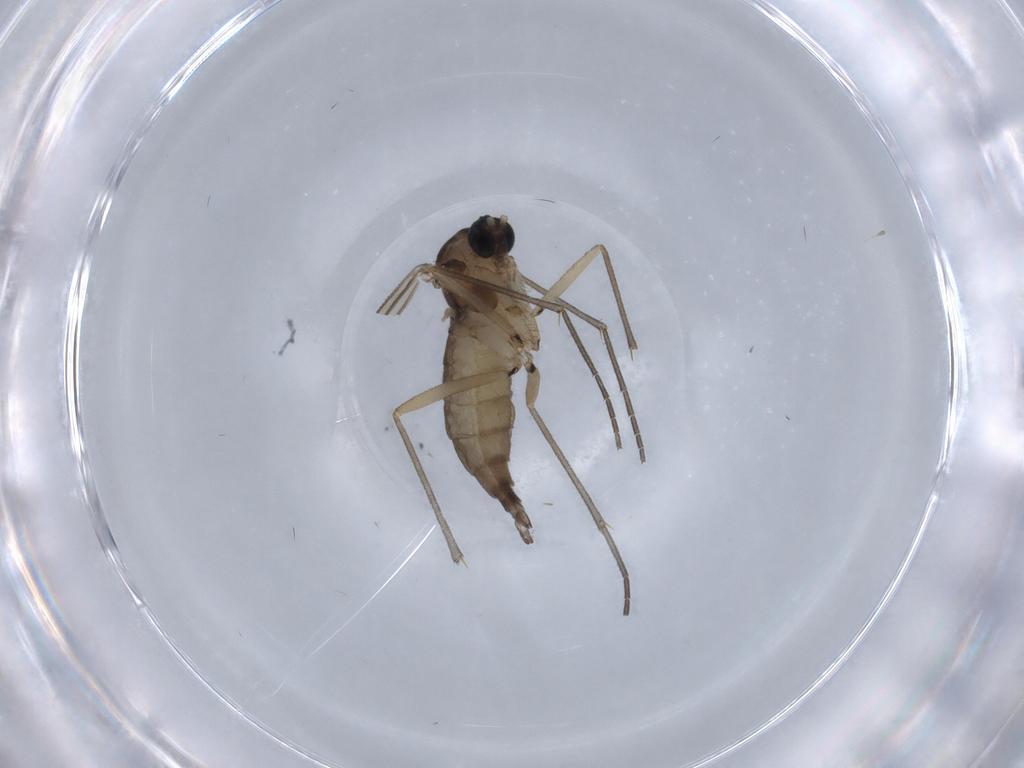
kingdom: Animalia
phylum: Arthropoda
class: Insecta
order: Diptera
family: Sciaridae
